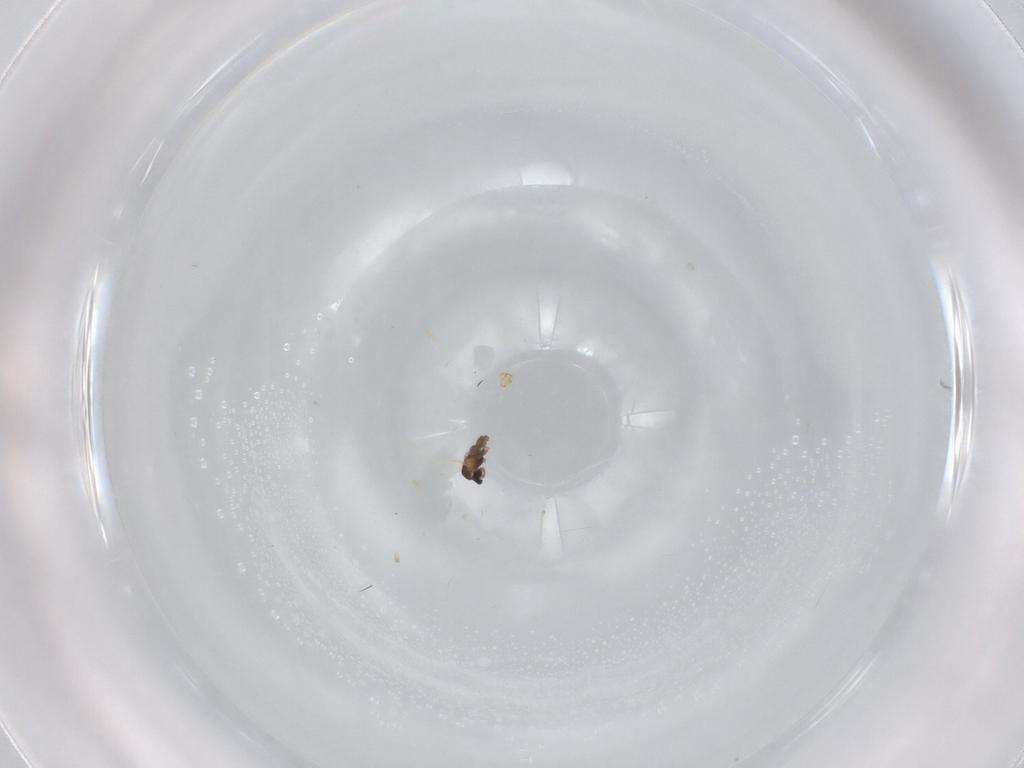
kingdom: Animalia
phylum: Arthropoda
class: Insecta
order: Diptera
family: Cecidomyiidae
